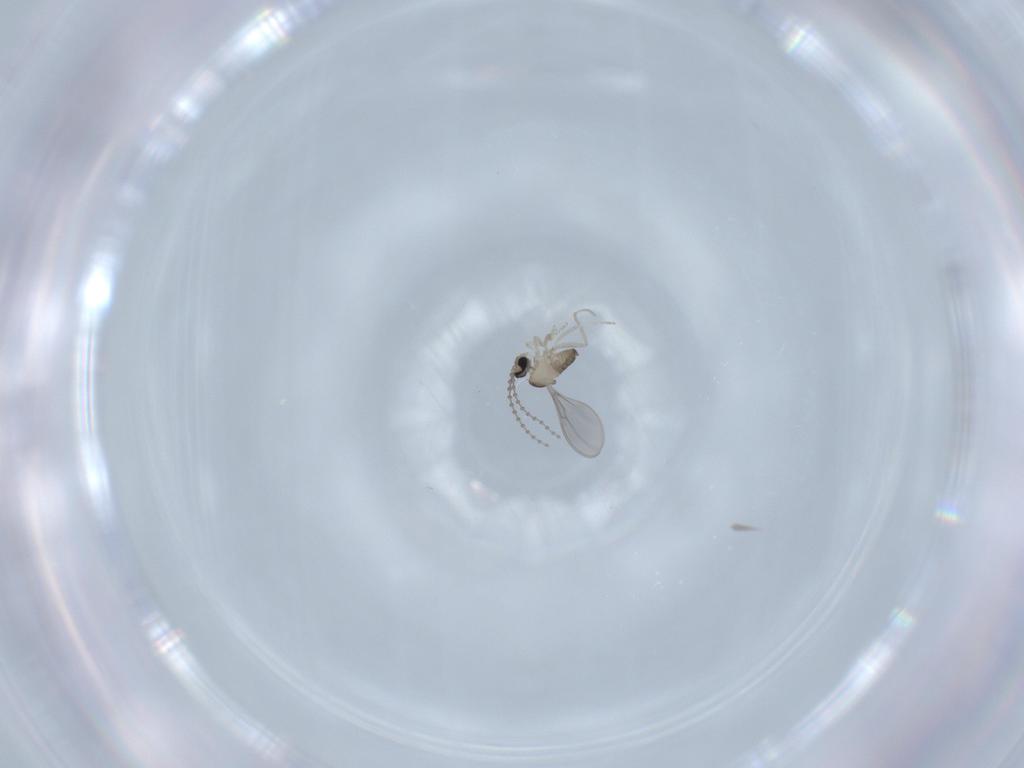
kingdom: Animalia
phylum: Arthropoda
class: Insecta
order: Diptera
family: Cecidomyiidae
